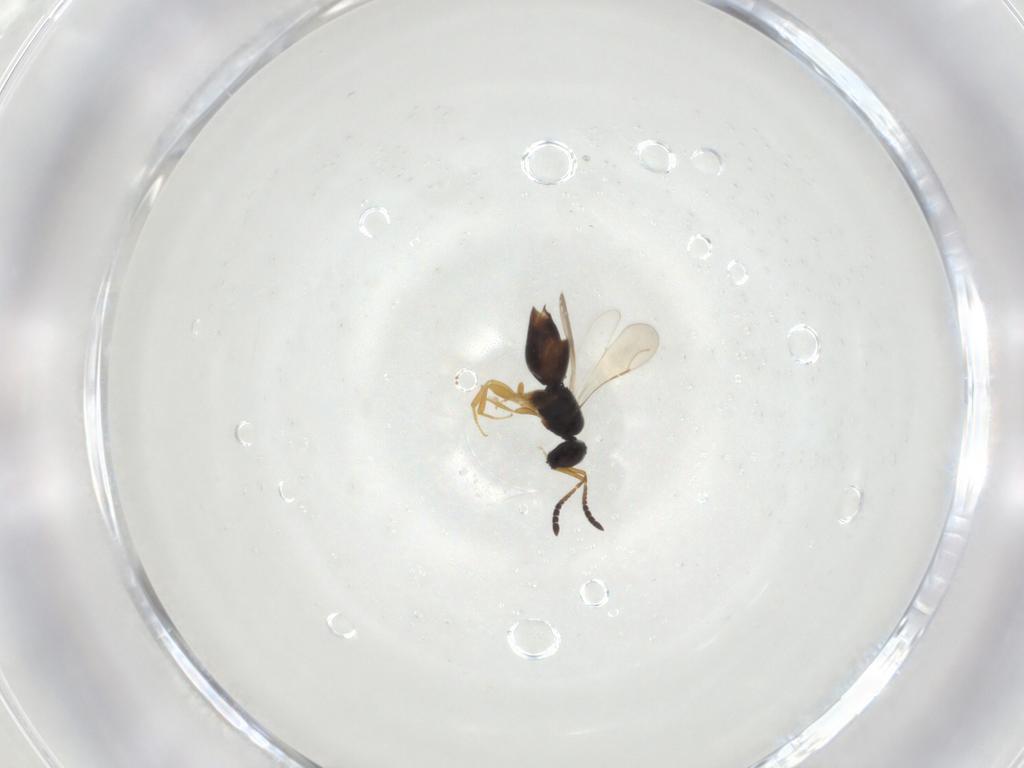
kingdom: Animalia
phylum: Arthropoda
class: Insecta
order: Hymenoptera
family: Ceraphronidae
